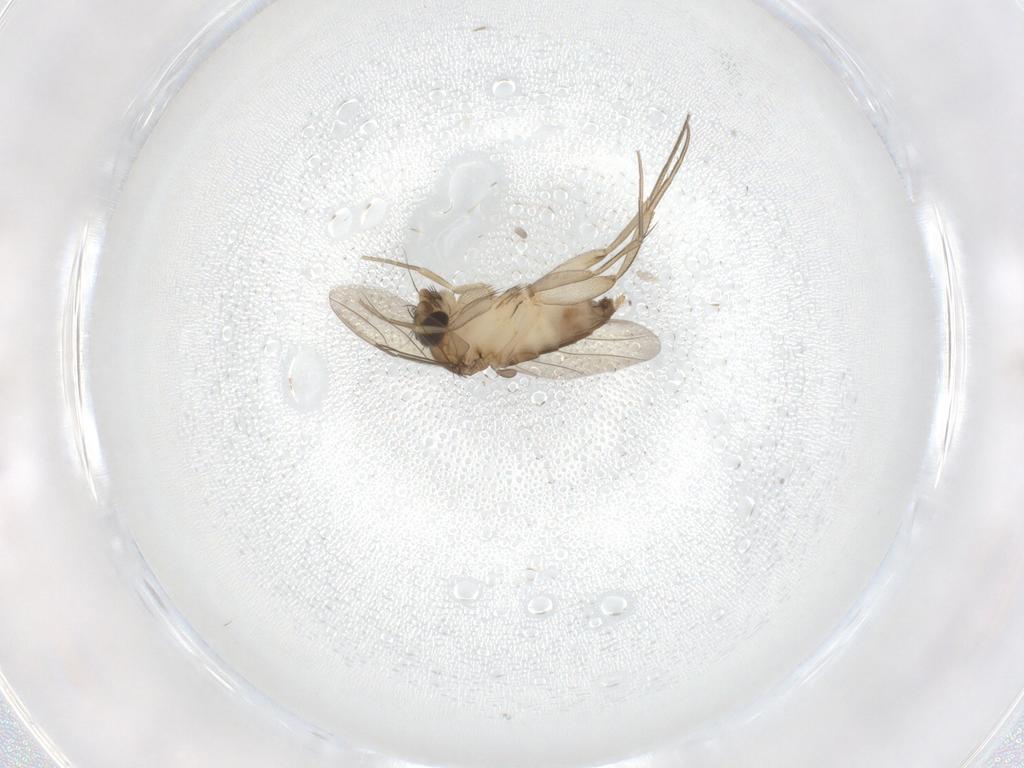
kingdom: Animalia
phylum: Arthropoda
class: Insecta
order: Diptera
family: Phoridae
